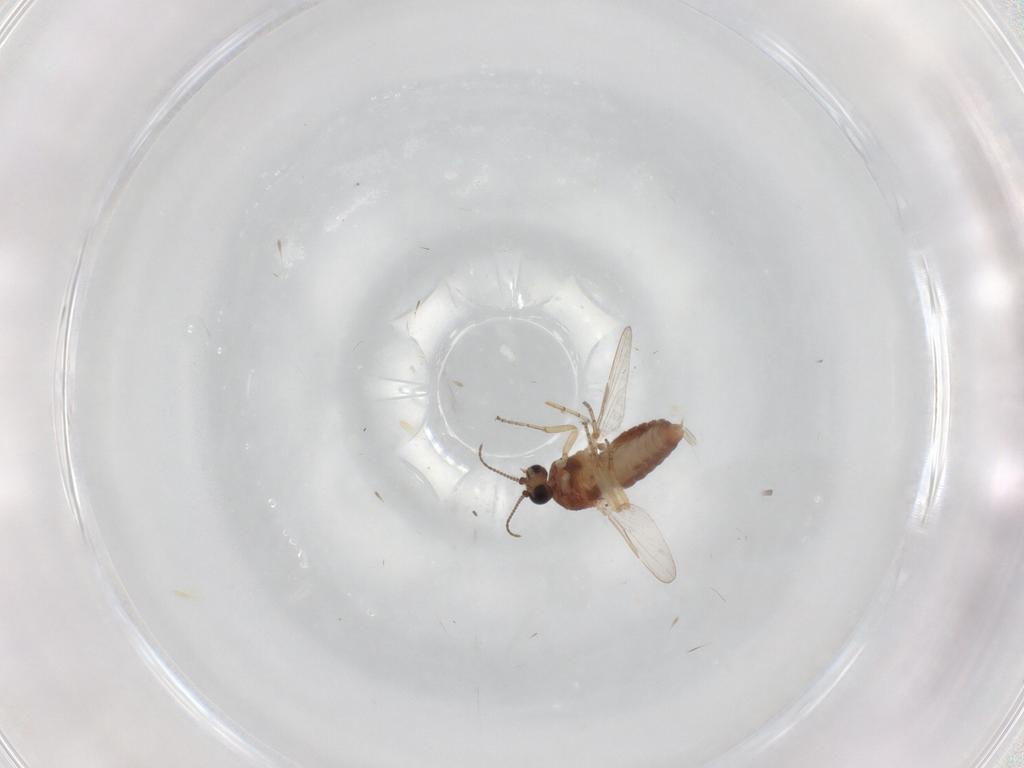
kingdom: Animalia
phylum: Arthropoda
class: Insecta
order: Diptera
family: Ceratopogonidae
